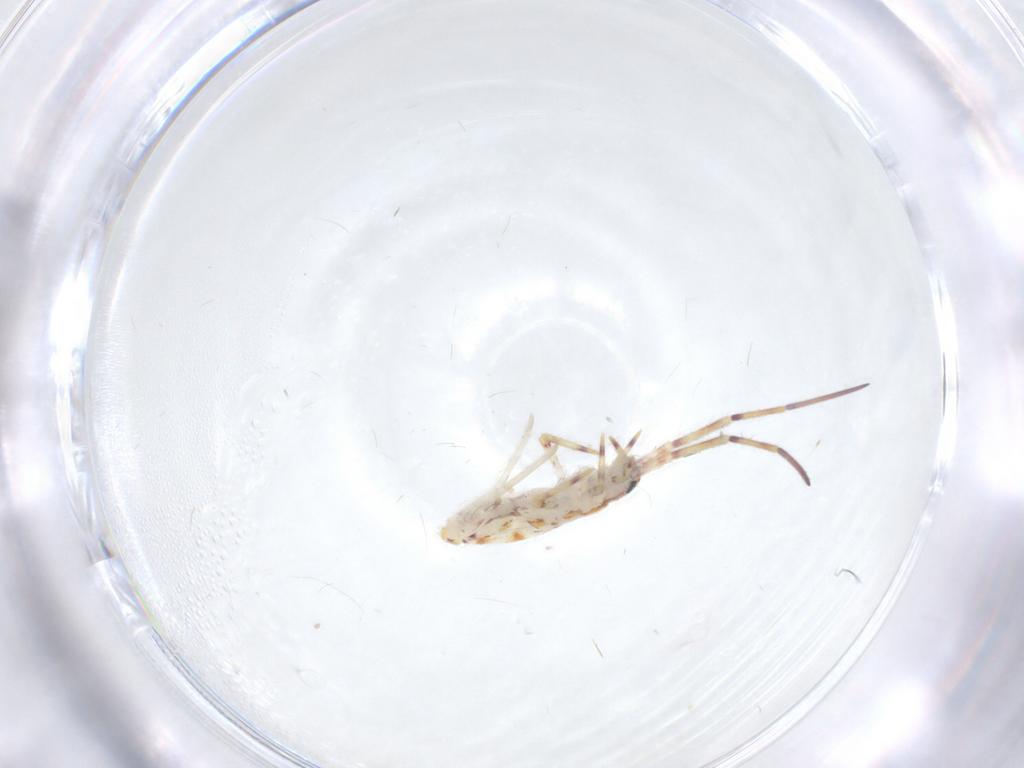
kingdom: Animalia
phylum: Arthropoda
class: Collembola
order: Entomobryomorpha
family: Entomobryidae
